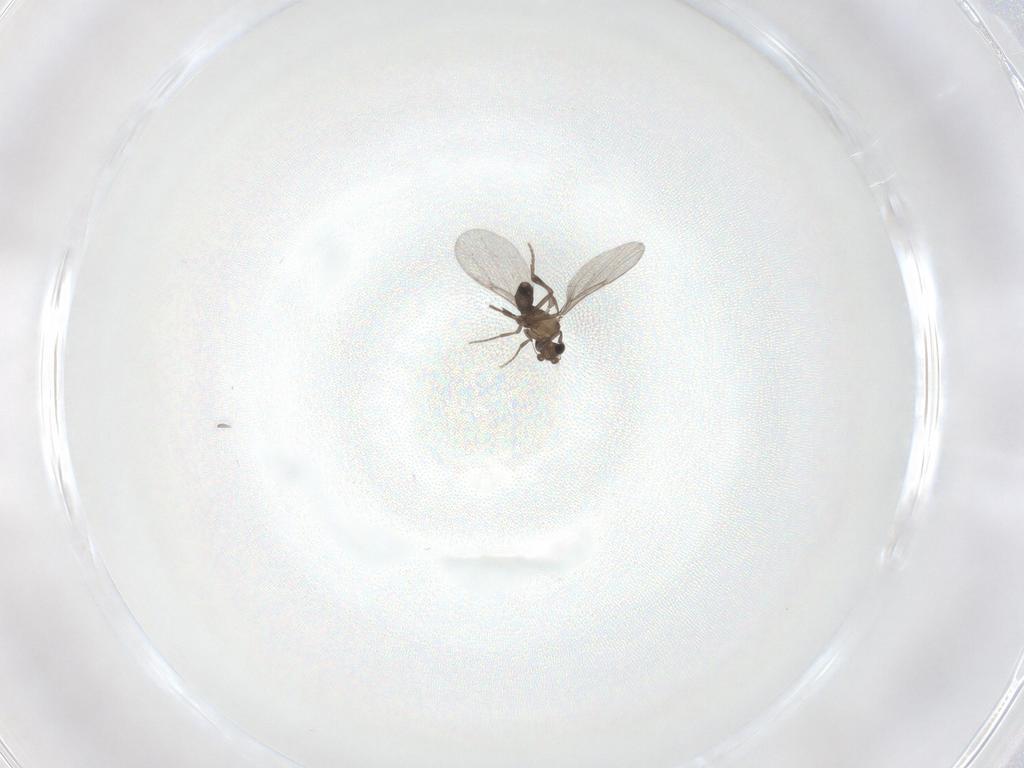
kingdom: Animalia
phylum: Arthropoda
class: Insecta
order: Diptera
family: Phoridae
